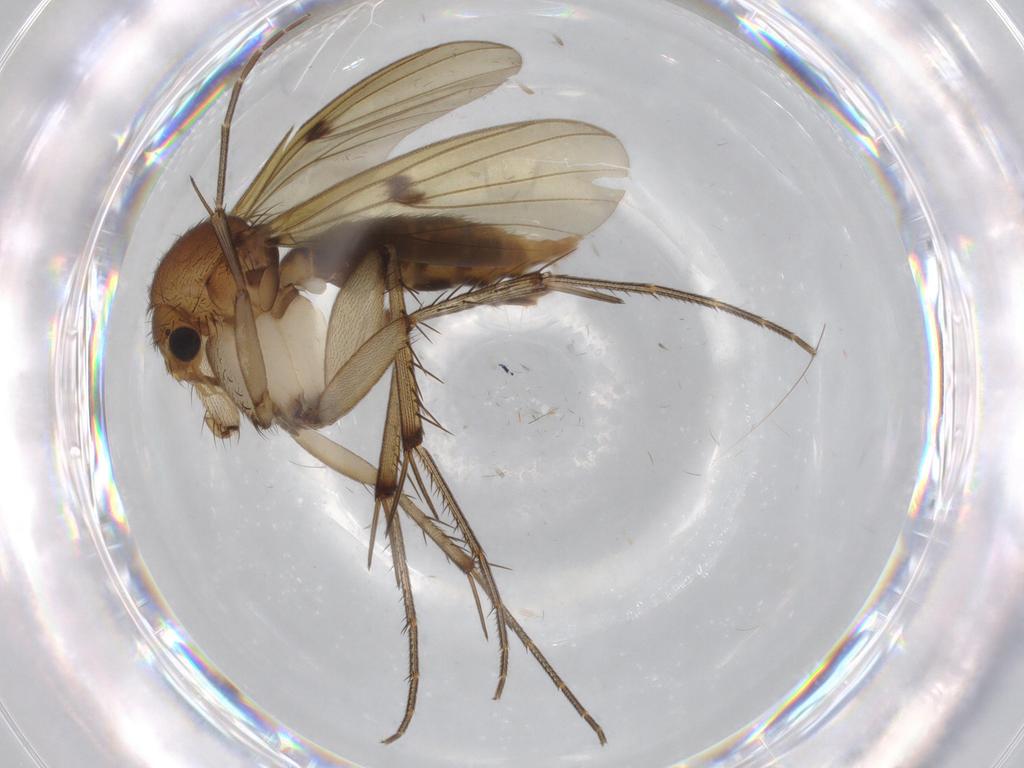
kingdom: Animalia
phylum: Arthropoda
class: Insecta
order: Diptera
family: Mycetophilidae
